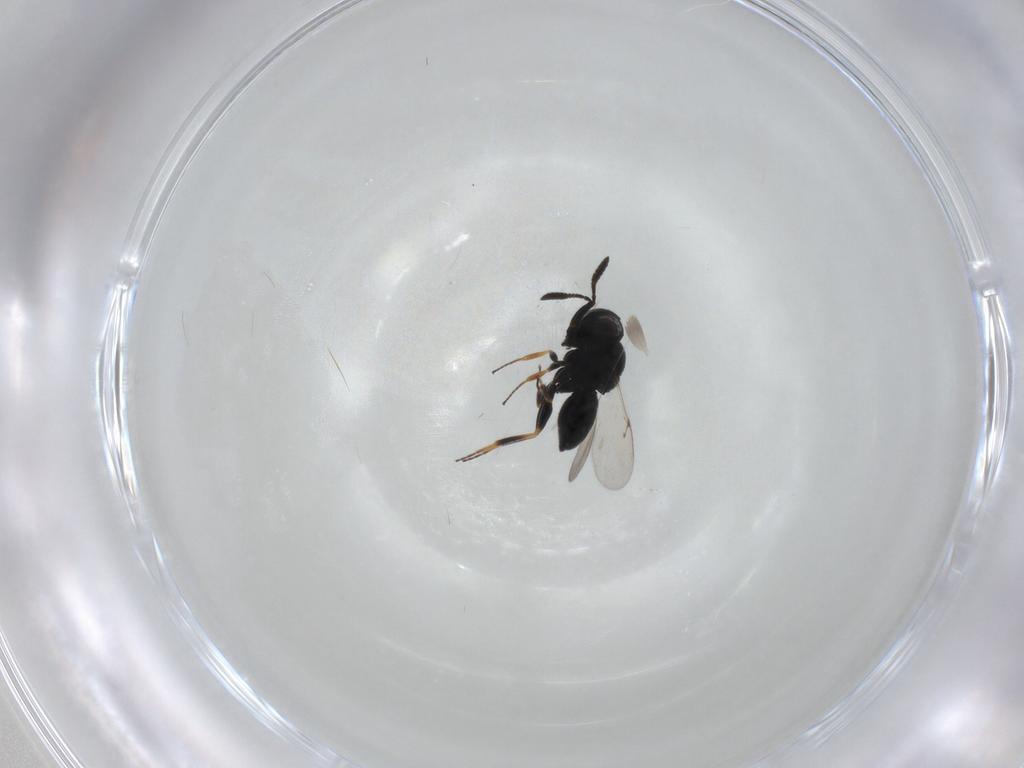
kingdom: Animalia
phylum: Arthropoda
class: Insecta
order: Hymenoptera
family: Scelionidae
